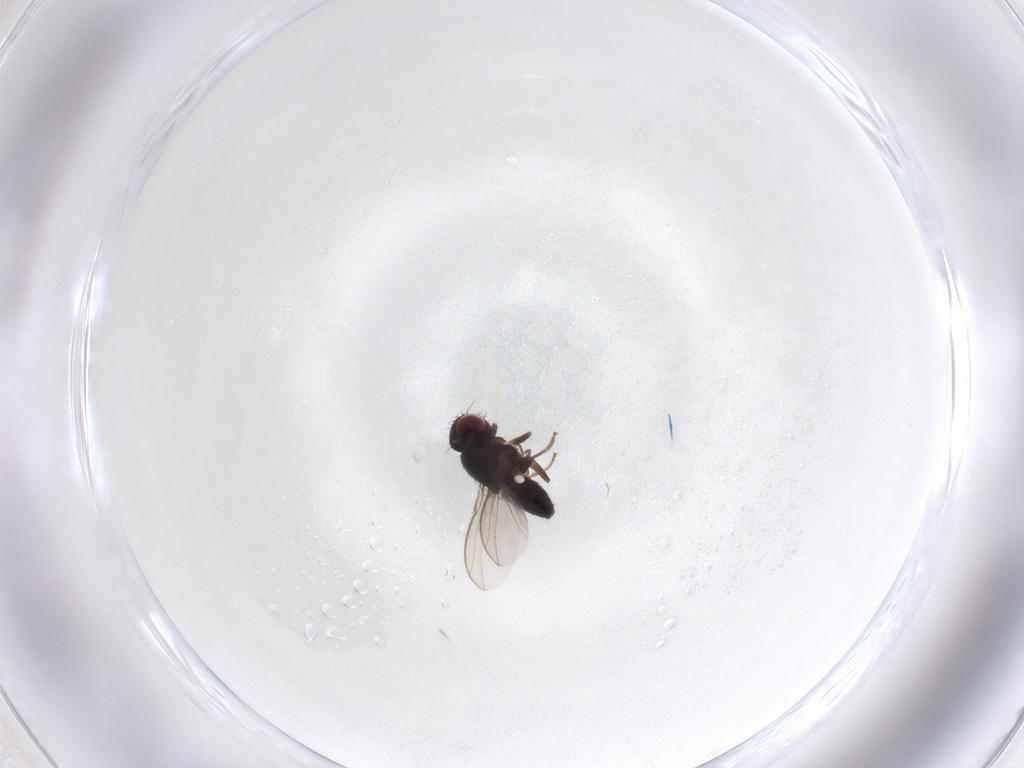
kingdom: Animalia
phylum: Arthropoda
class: Insecta
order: Diptera
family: Carnidae
